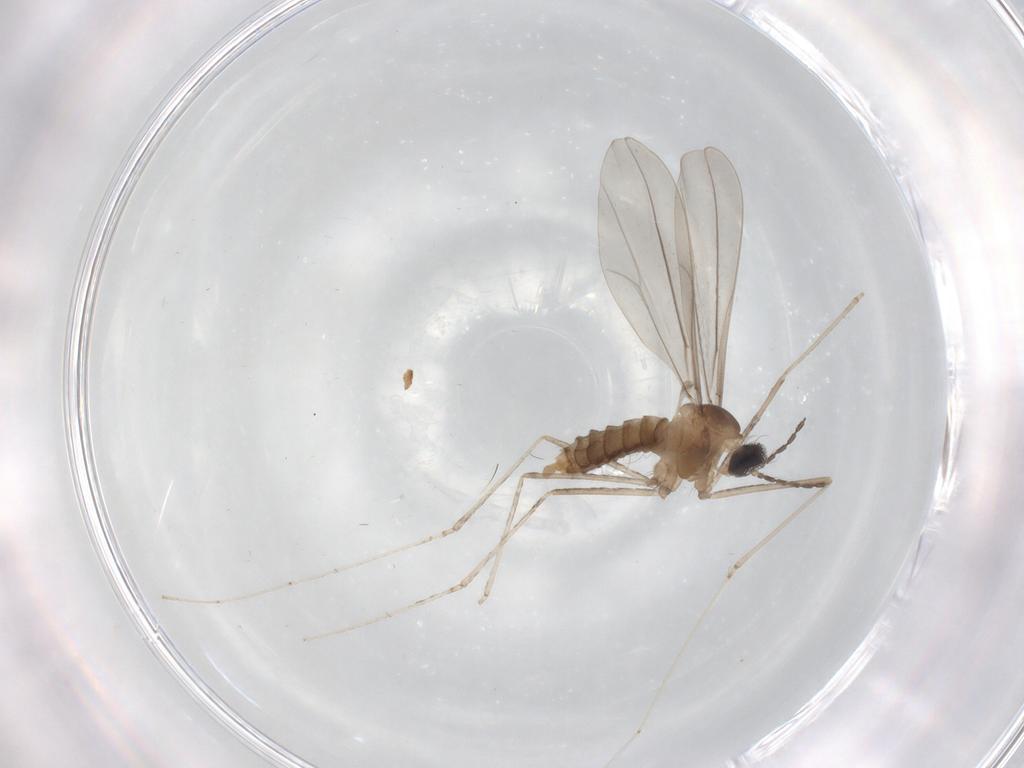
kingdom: Animalia
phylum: Arthropoda
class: Insecta
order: Diptera
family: Cecidomyiidae
